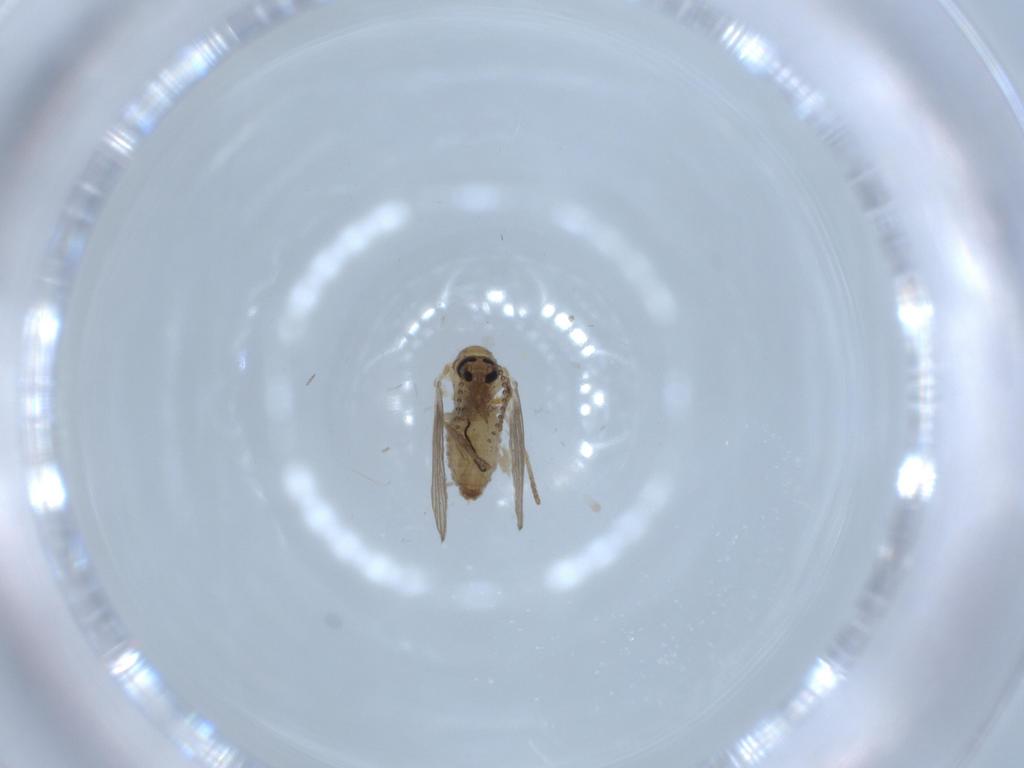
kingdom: Animalia
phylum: Arthropoda
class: Insecta
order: Diptera
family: Psychodidae
